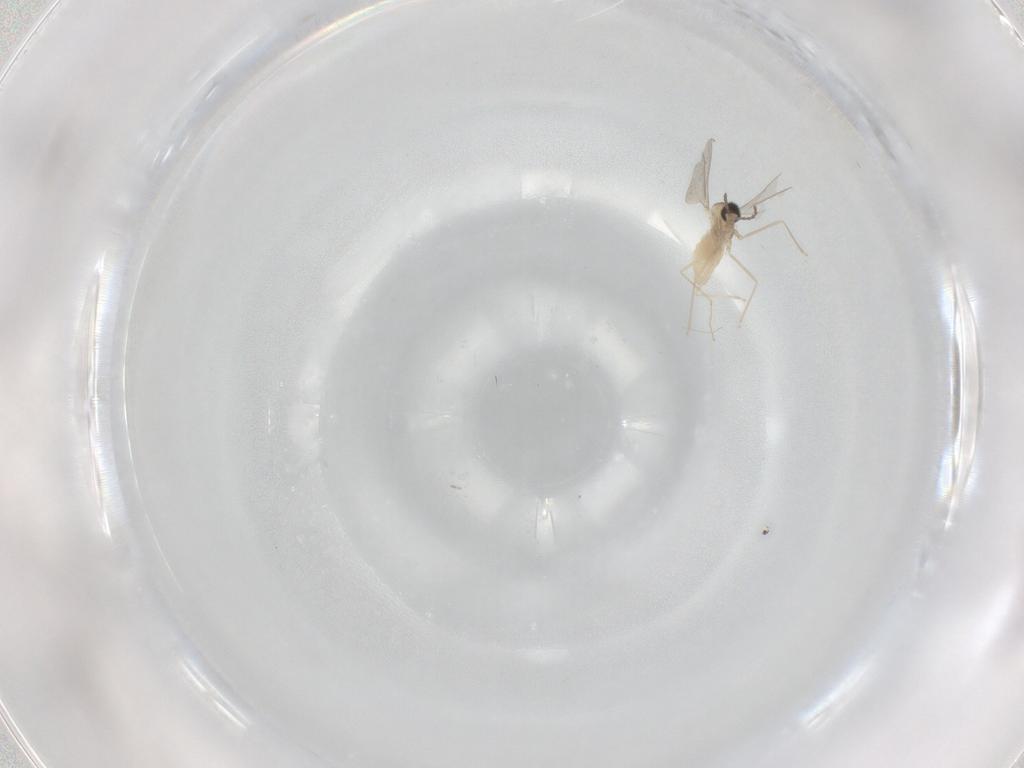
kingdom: Animalia
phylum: Arthropoda
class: Insecta
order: Diptera
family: Cecidomyiidae
